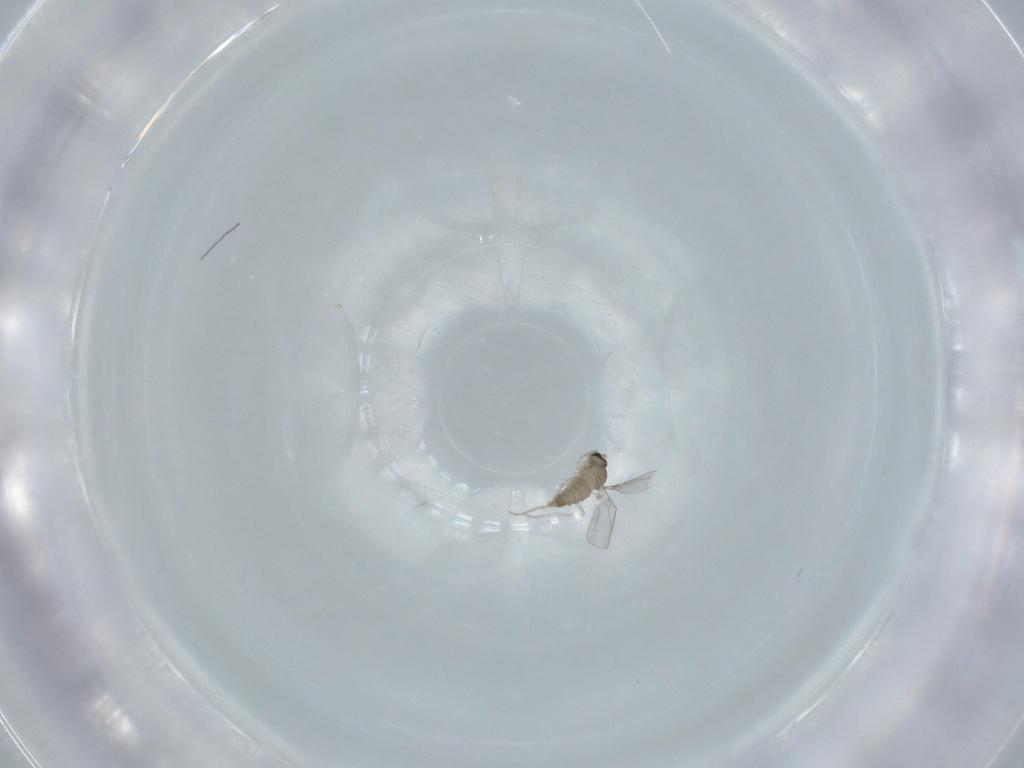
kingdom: Animalia
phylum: Arthropoda
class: Insecta
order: Diptera
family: Cecidomyiidae
